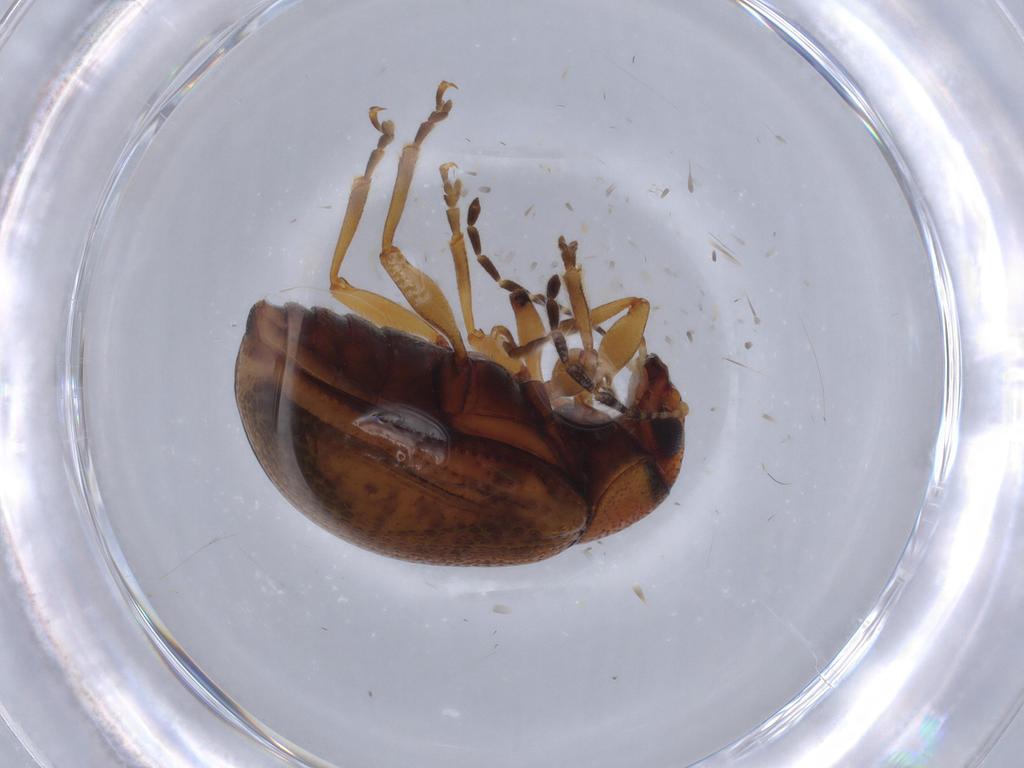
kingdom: Animalia
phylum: Arthropoda
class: Insecta
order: Coleoptera
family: Chrysomelidae
